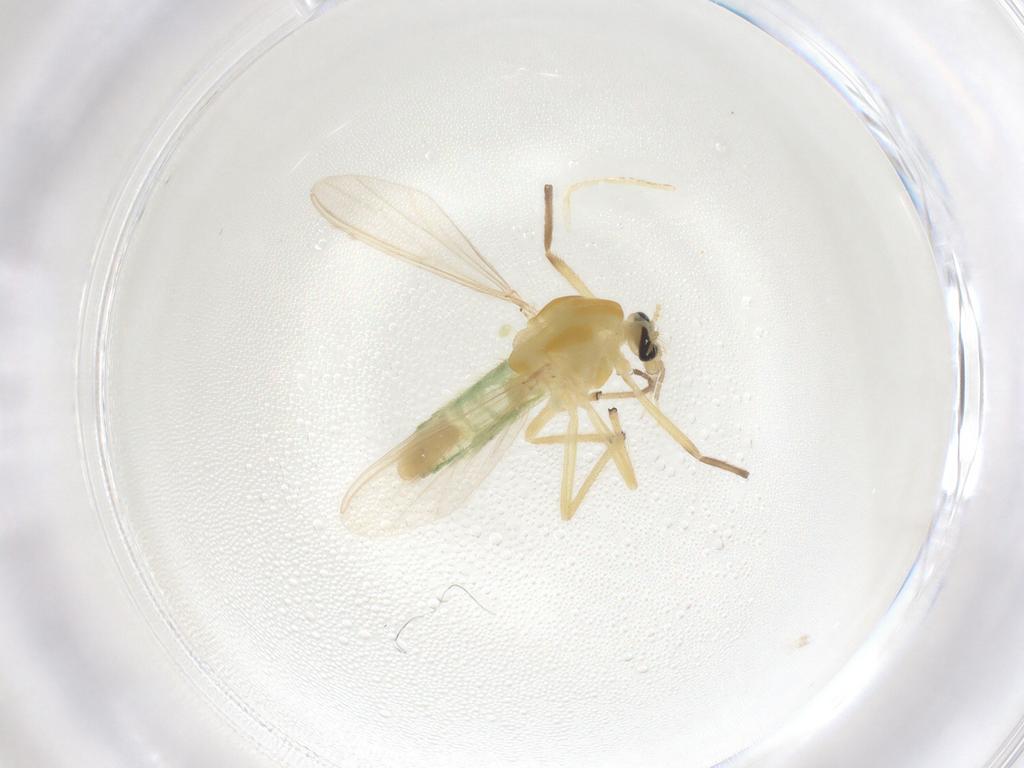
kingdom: Animalia
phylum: Arthropoda
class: Insecta
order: Diptera
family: Chironomidae
